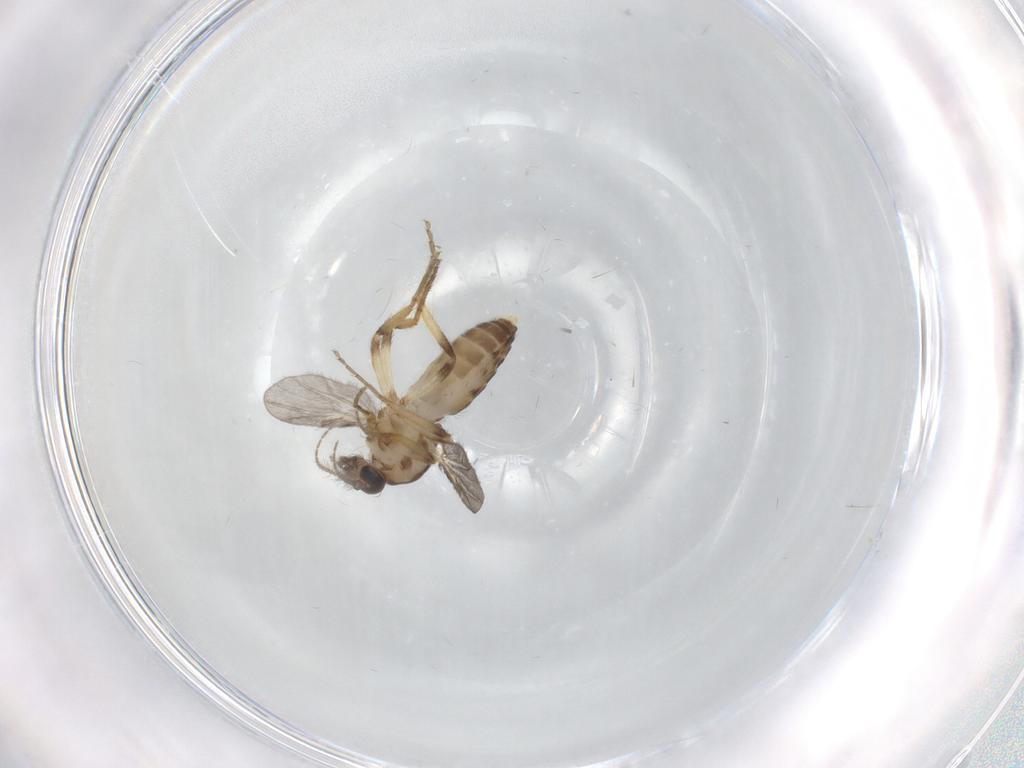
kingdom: Animalia
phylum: Arthropoda
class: Insecta
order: Diptera
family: Ceratopogonidae
